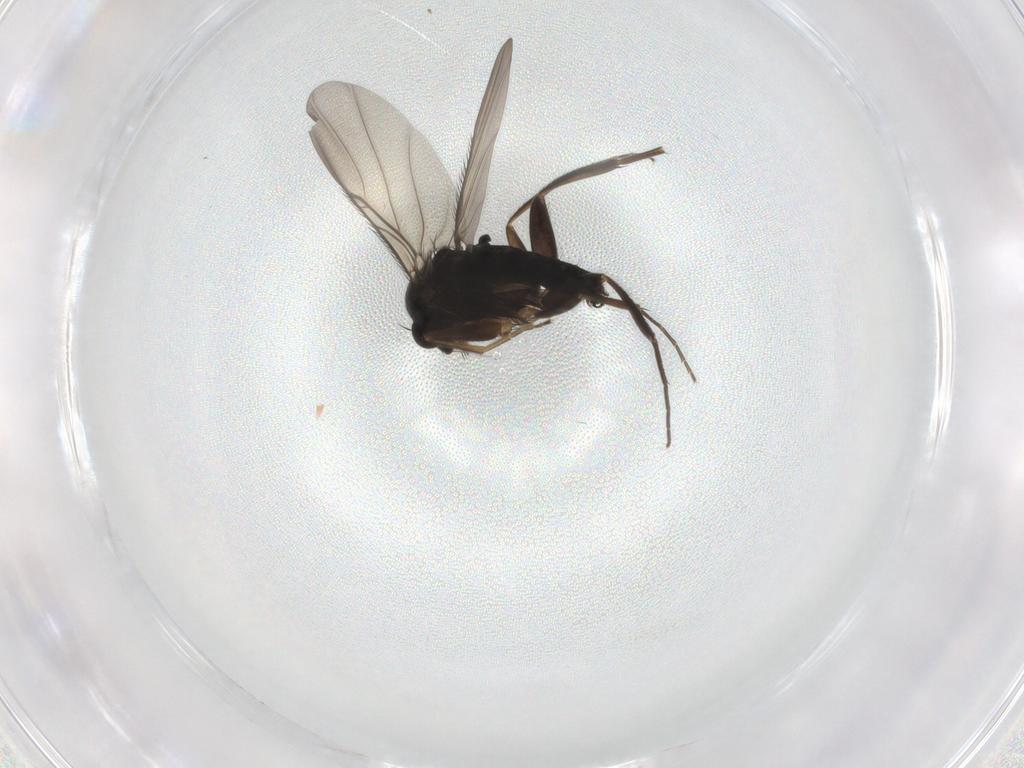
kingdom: Animalia
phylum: Arthropoda
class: Insecta
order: Diptera
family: Phoridae
